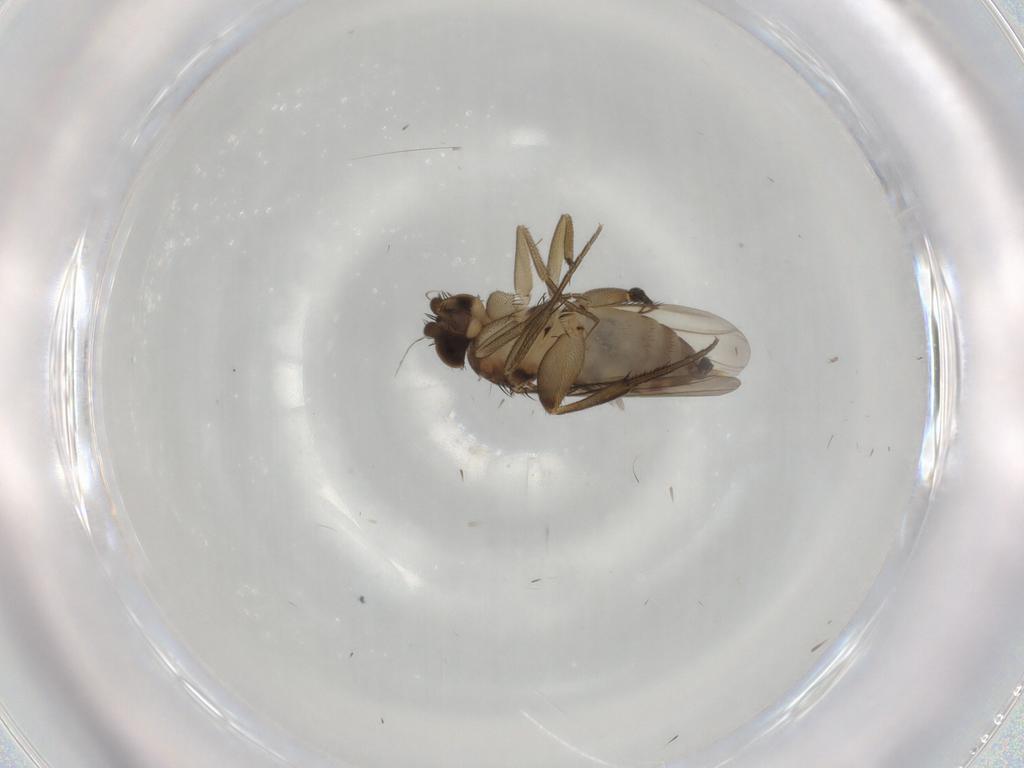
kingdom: Animalia
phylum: Arthropoda
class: Insecta
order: Diptera
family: Phoridae
